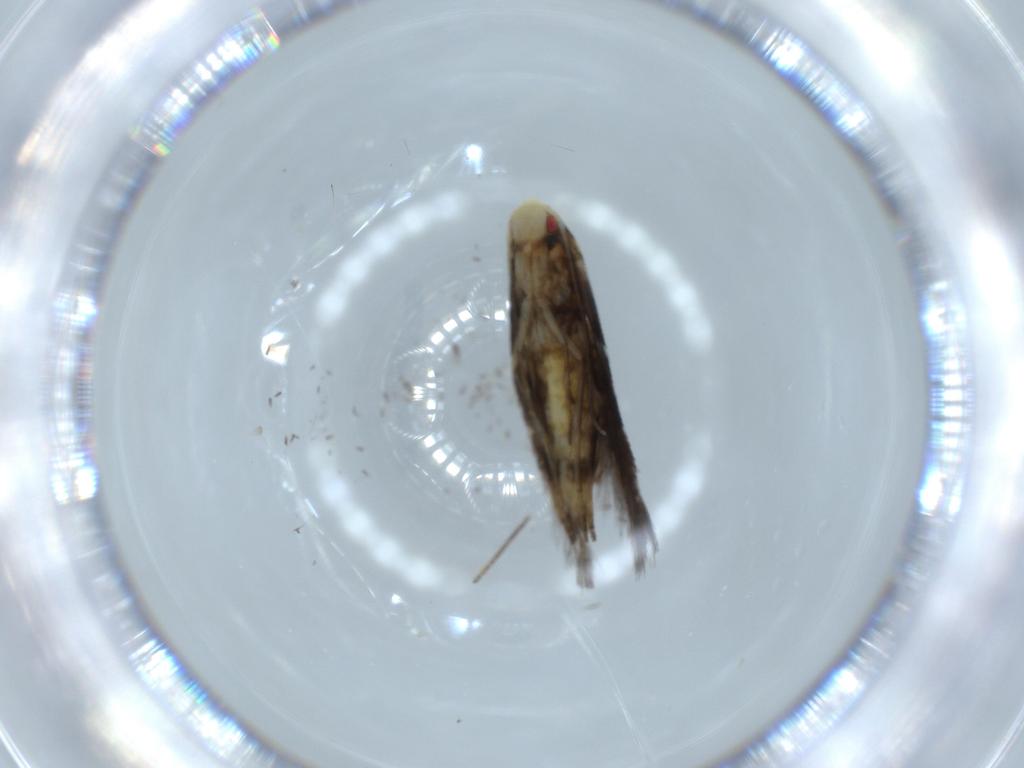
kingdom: Animalia
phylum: Arthropoda
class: Insecta
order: Lepidoptera
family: Cosmopterigidae
